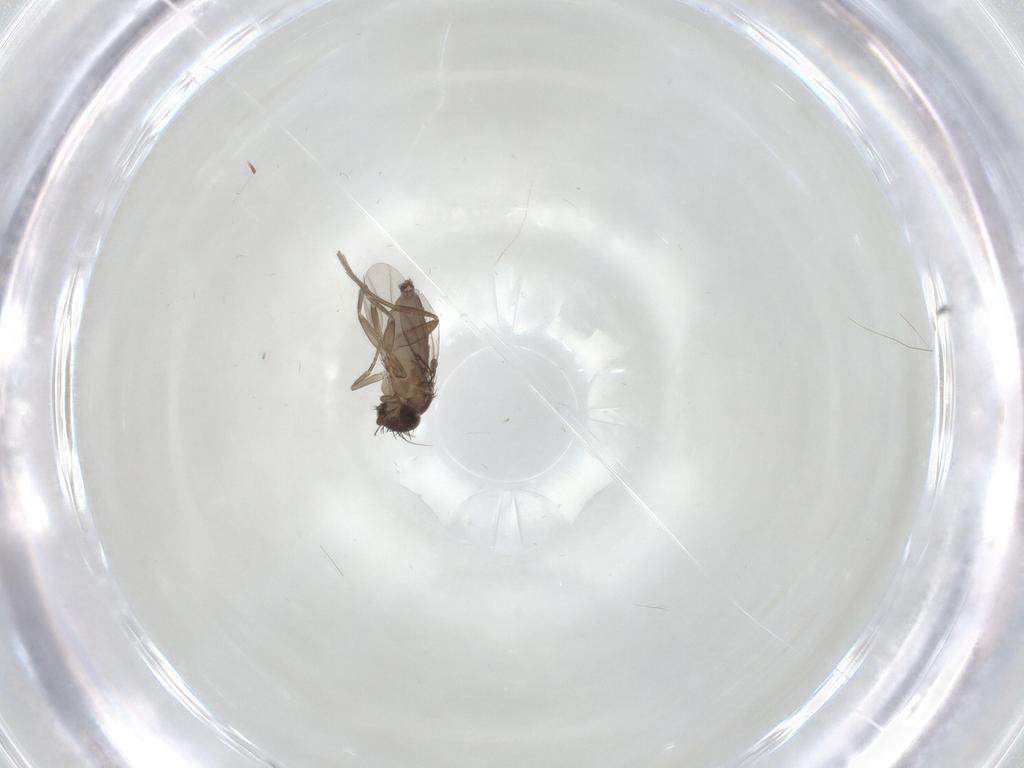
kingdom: Animalia
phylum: Arthropoda
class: Insecta
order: Diptera
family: Phoridae
